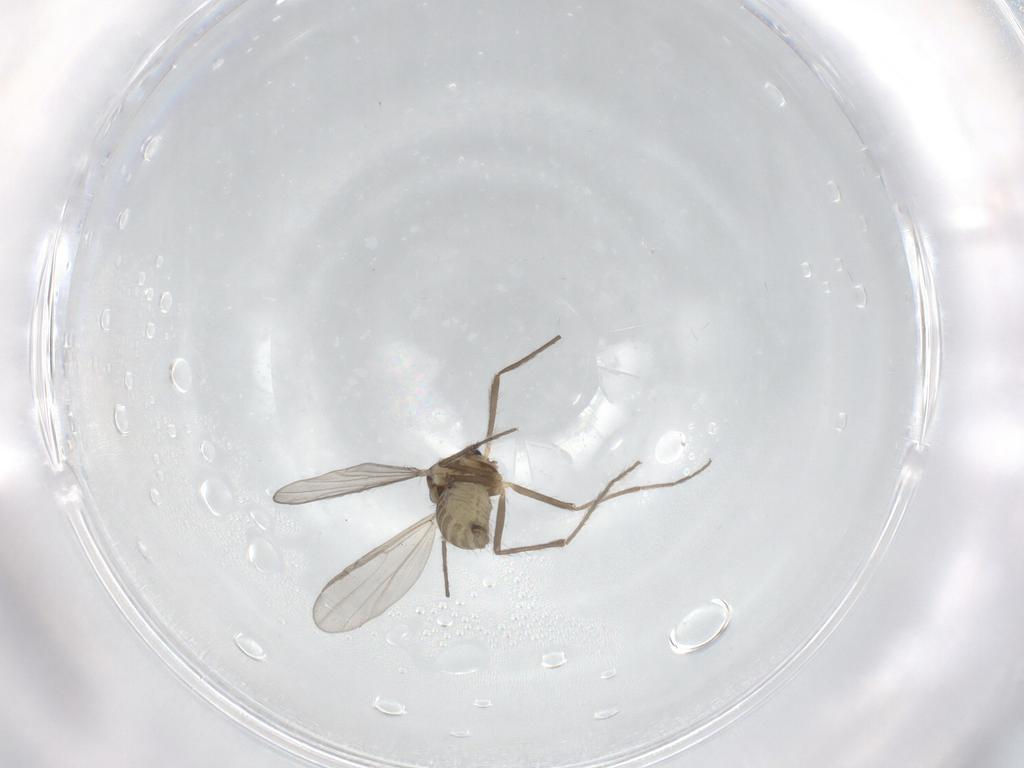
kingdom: Animalia
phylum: Arthropoda
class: Insecta
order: Diptera
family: Chironomidae
